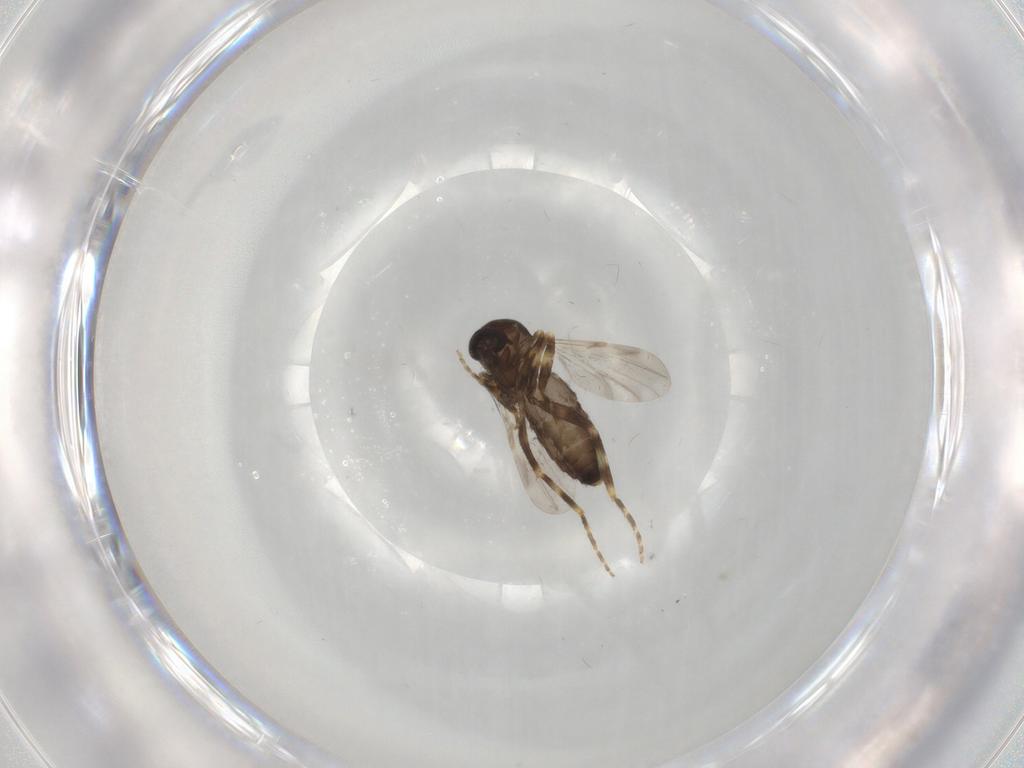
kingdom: Animalia
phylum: Arthropoda
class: Insecta
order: Diptera
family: Ceratopogonidae
